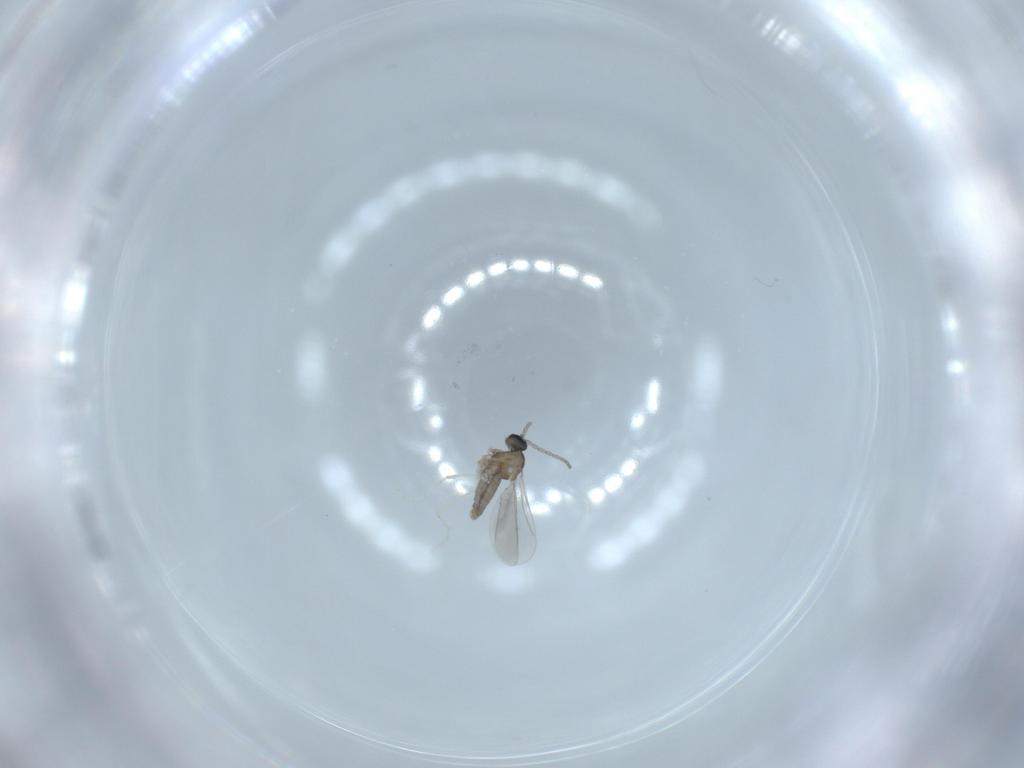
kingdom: Animalia
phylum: Arthropoda
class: Insecta
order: Diptera
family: Cecidomyiidae
